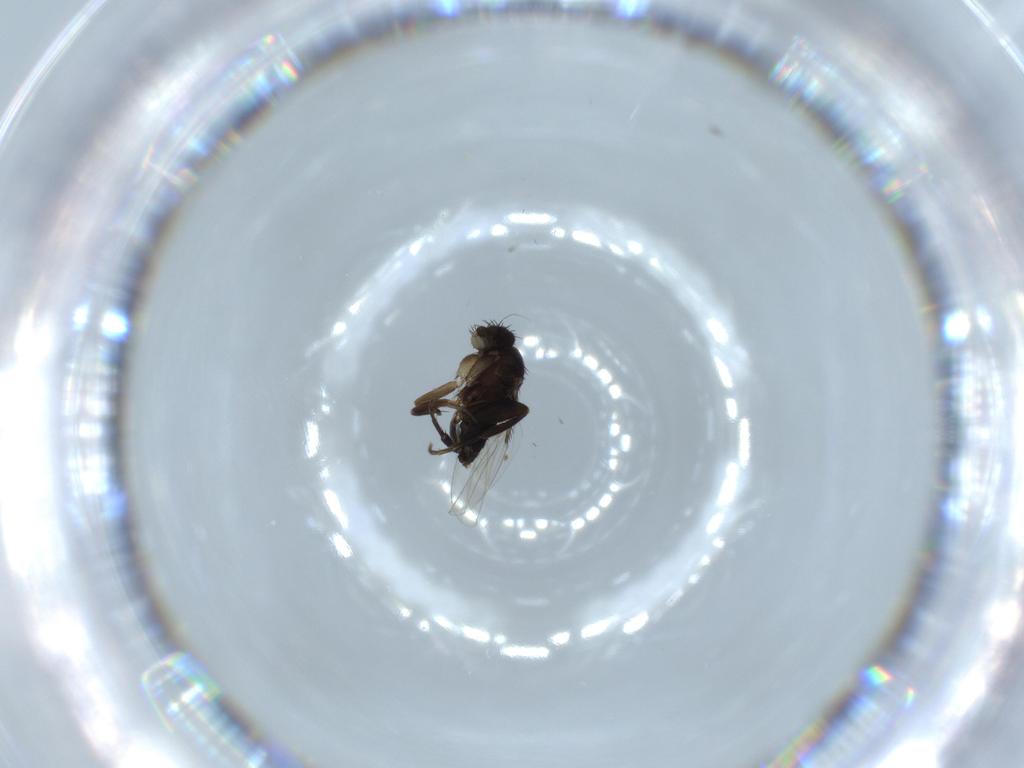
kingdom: Animalia
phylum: Arthropoda
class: Insecta
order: Diptera
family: Phoridae
